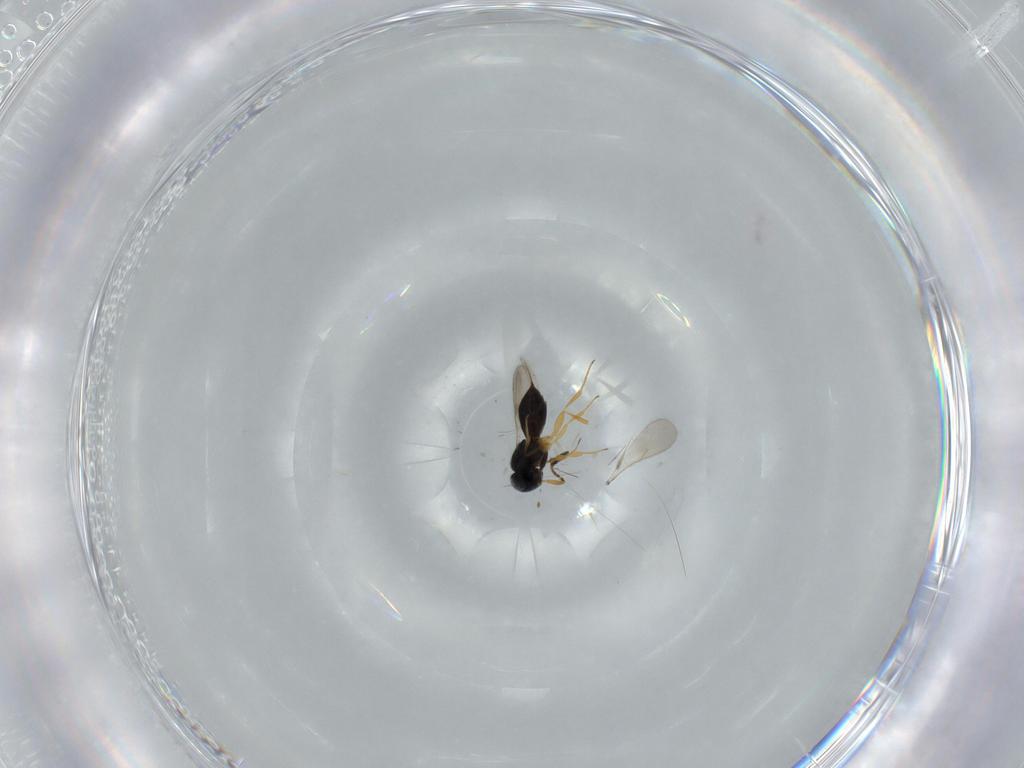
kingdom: Animalia
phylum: Arthropoda
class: Insecta
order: Hymenoptera
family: Scelionidae
